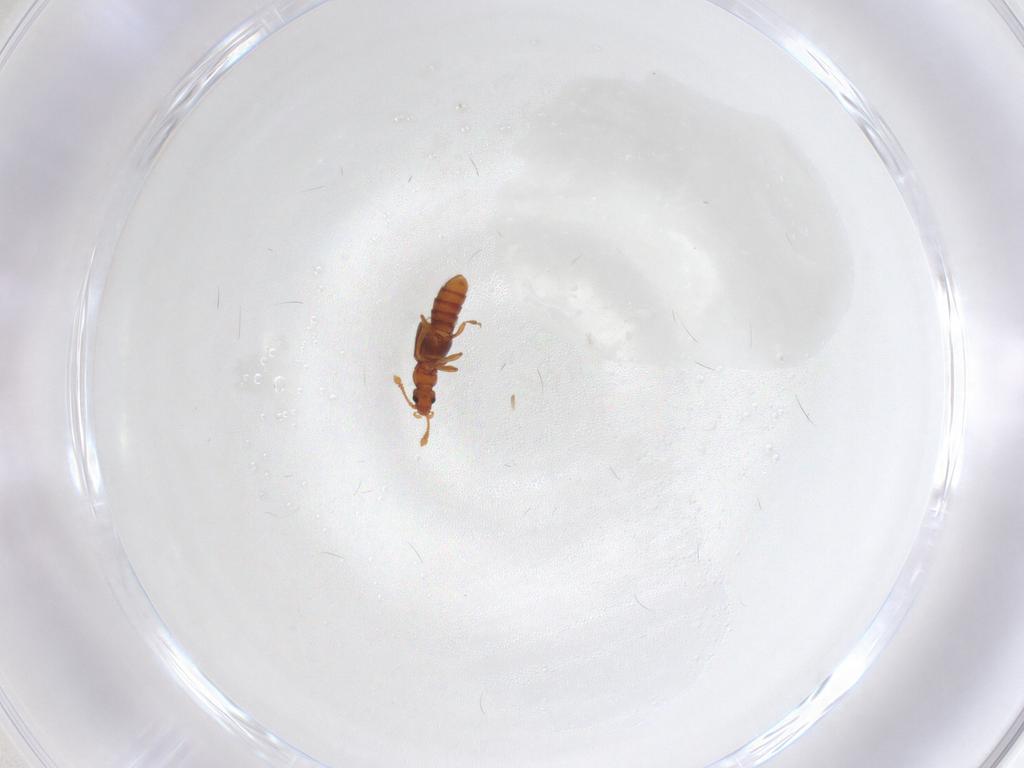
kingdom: Animalia
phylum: Arthropoda
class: Insecta
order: Coleoptera
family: Staphylinidae
